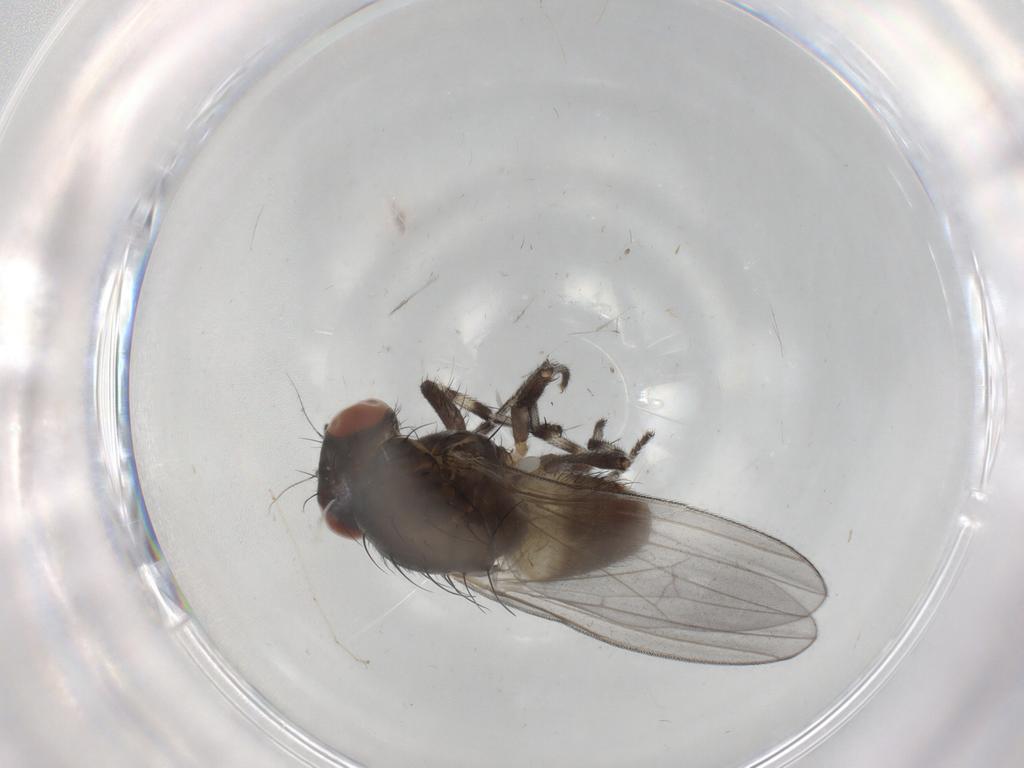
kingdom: Animalia
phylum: Arthropoda
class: Insecta
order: Diptera
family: Cecidomyiidae
